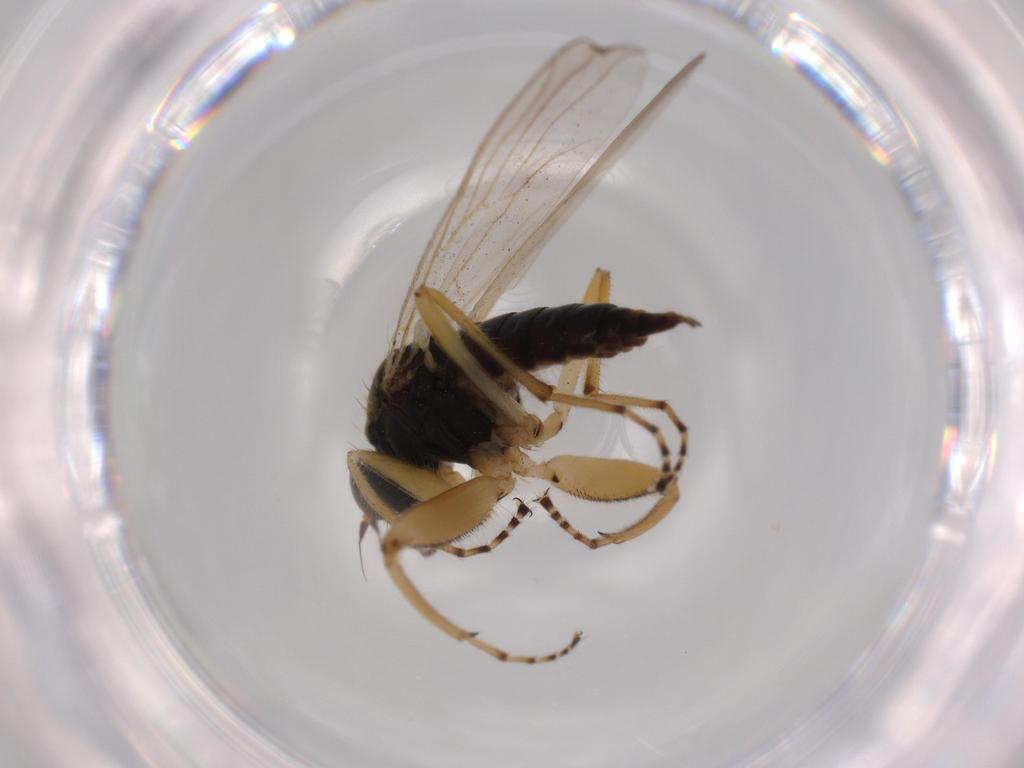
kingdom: Animalia
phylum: Arthropoda
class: Insecta
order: Diptera
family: Hybotidae
